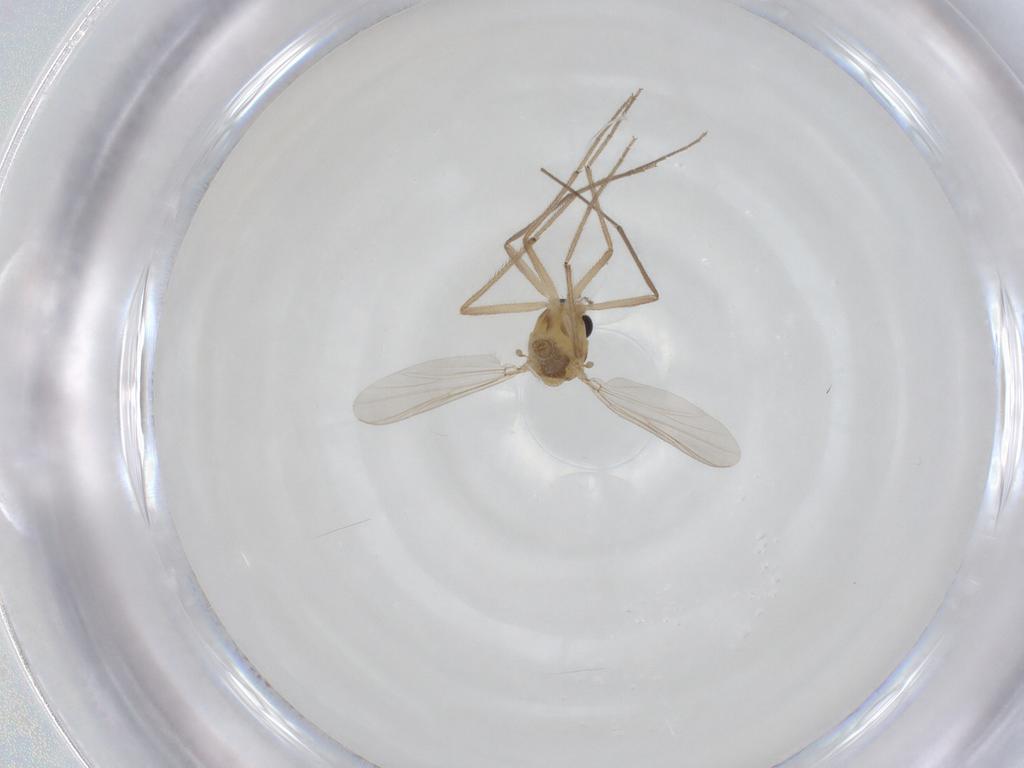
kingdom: Animalia
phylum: Arthropoda
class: Insecta
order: Diptera
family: Chironomidae
